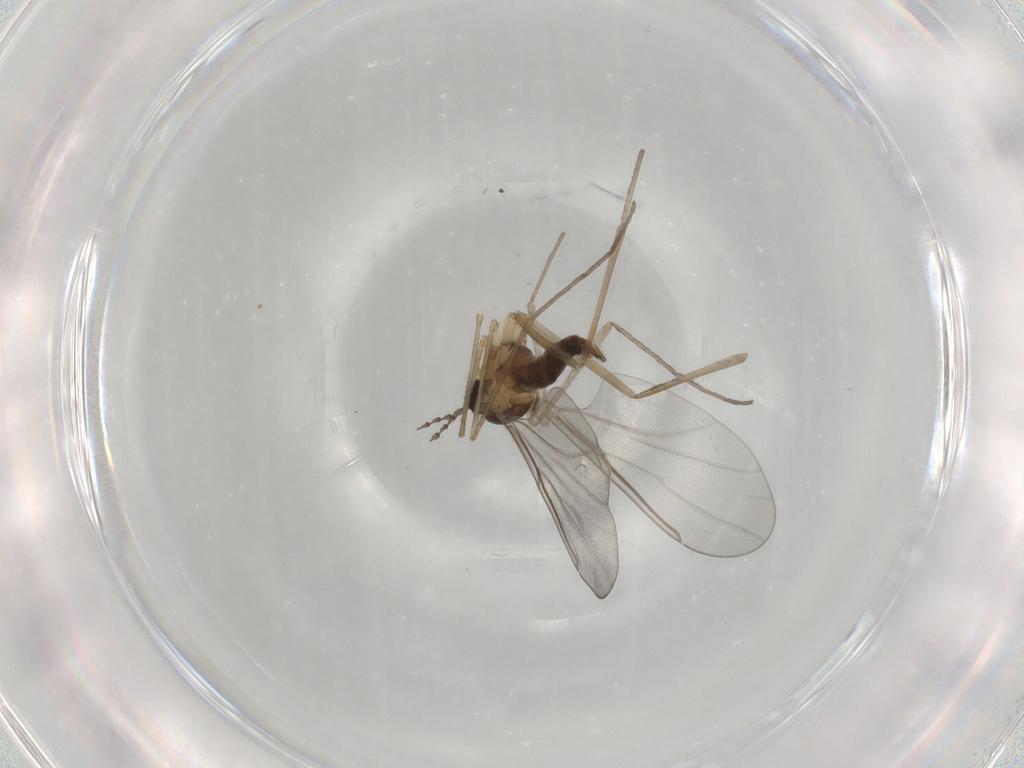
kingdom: Animalia
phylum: Arthropoda
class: Insecta
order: Diptera
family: Cecidomyiidae
